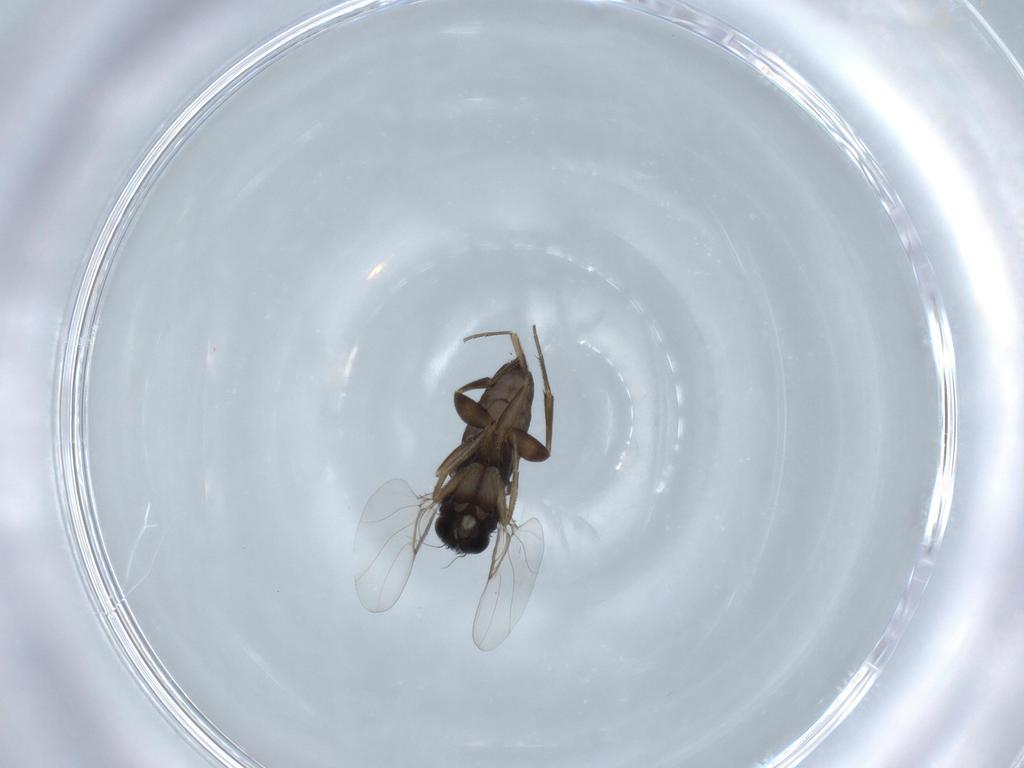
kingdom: Animalia
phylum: Arthropoda
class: Insecta
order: Diptera
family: Phoridae
